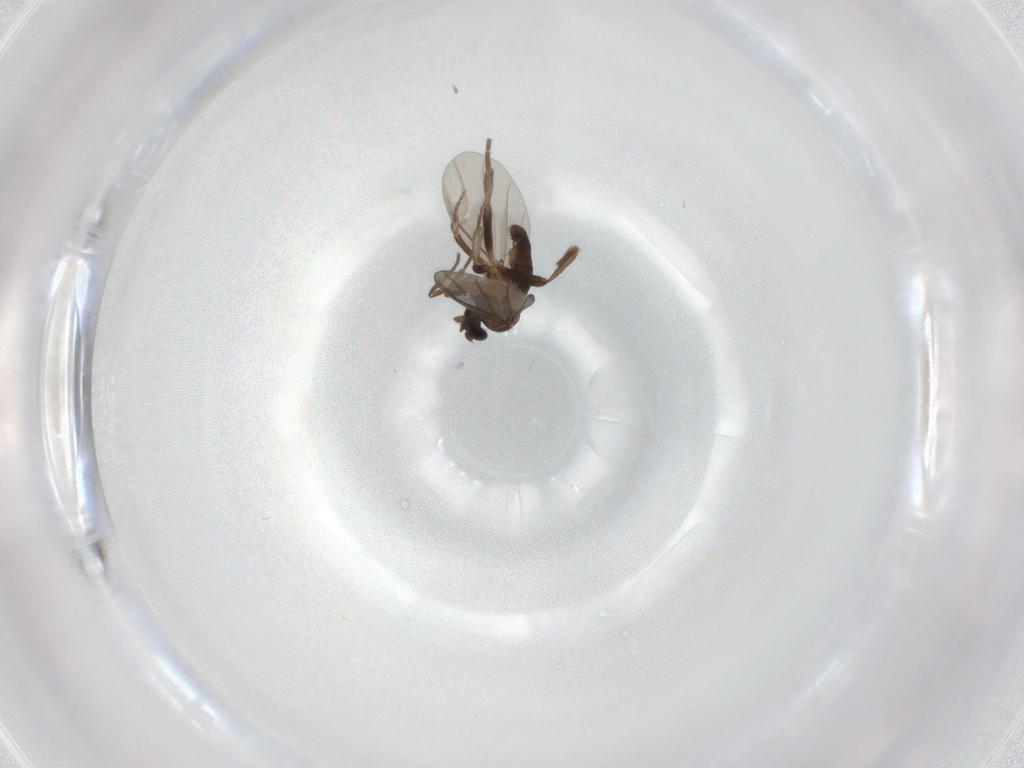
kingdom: Animalia
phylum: Arthropoda
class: Insecta
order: Diptera
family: Phoridae
